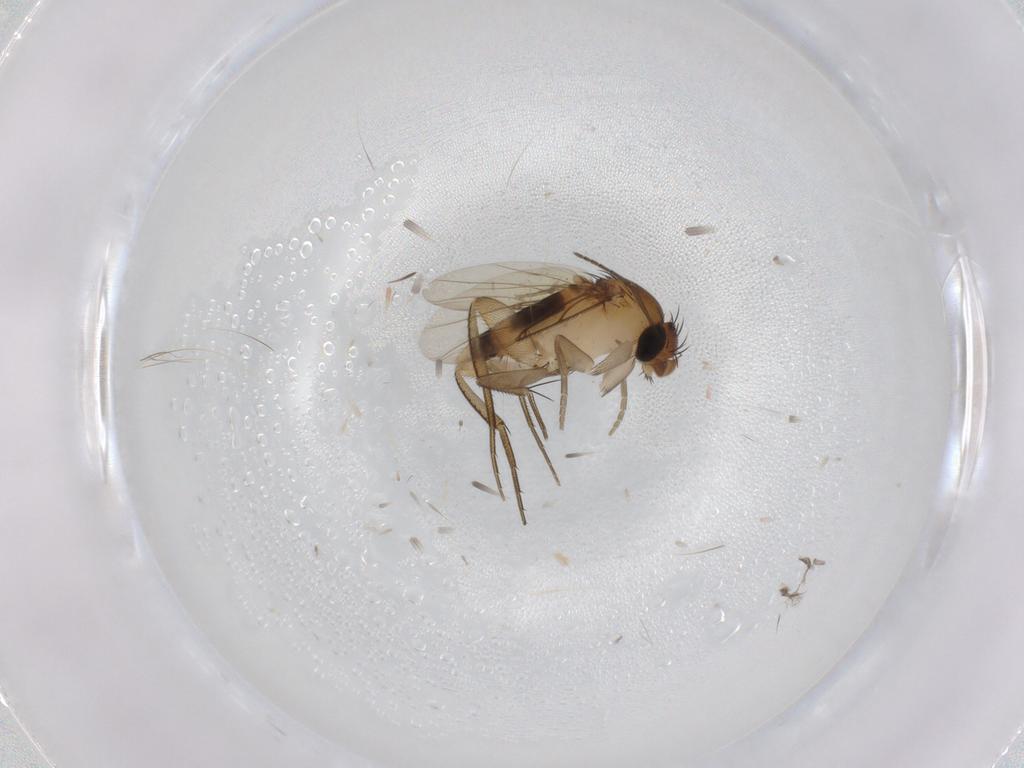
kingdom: Animalia
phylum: Arthropoda
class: Insecta
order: Diptera
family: Phoridae
